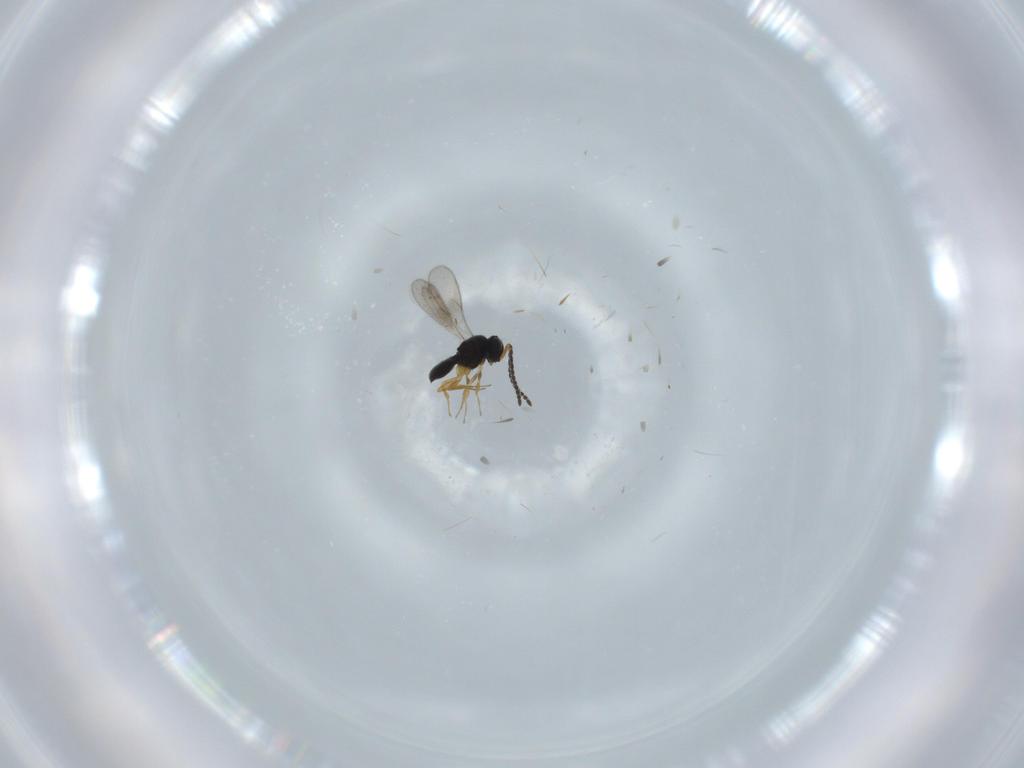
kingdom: Animalia
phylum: Arthropoda
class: Insecta
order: Hymenoptera
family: Scelionidae
